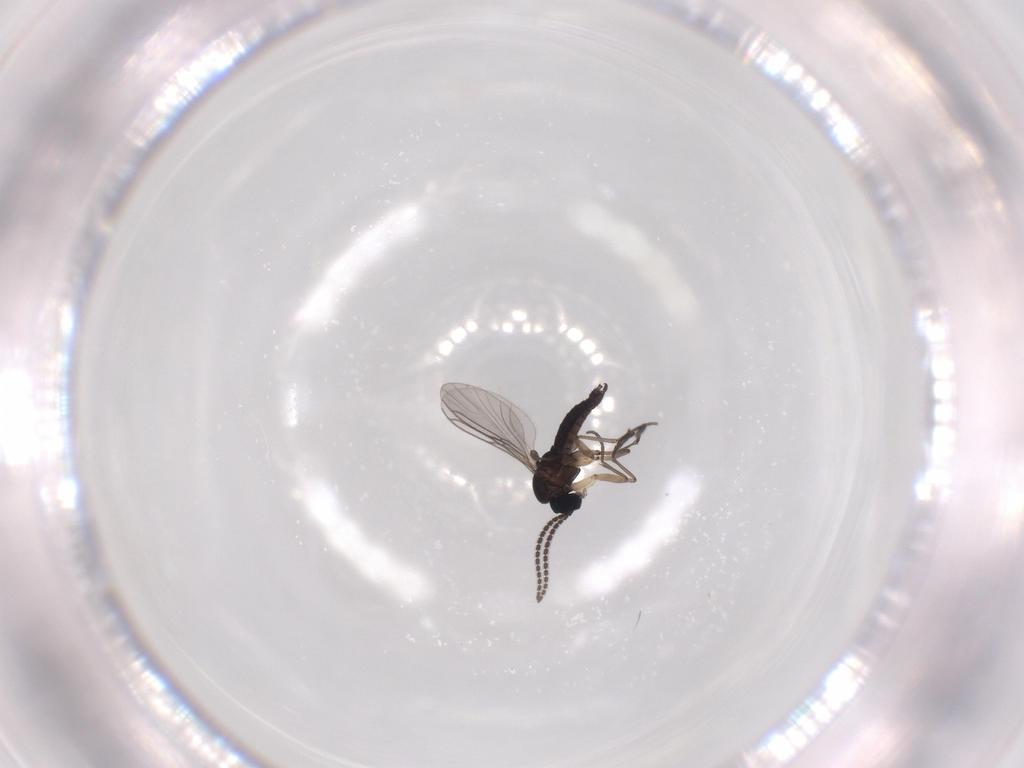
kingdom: Animalia
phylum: Arthropoda
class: Insecta
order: Diptera
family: Sciaridae
